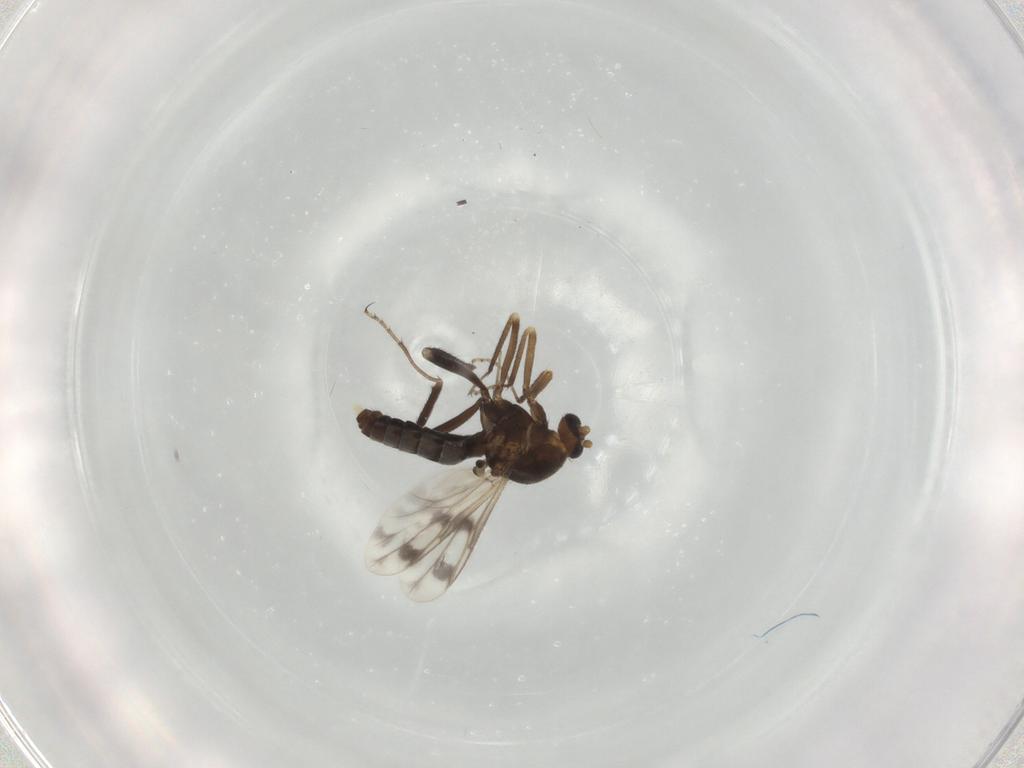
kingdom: Animalia
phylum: Arthropoda
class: Insecta
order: Diptera
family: Ceratopogonidae
